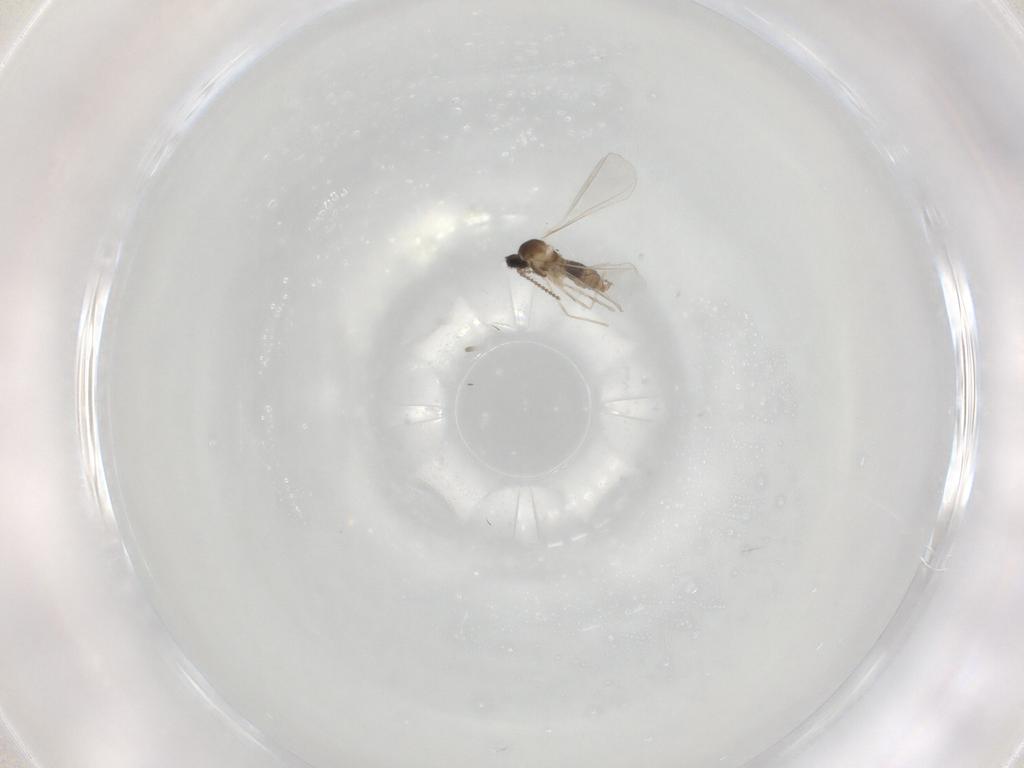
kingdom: Animalia
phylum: Arthropoda
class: Insecta
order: Diptera
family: Cecidomyiidae
